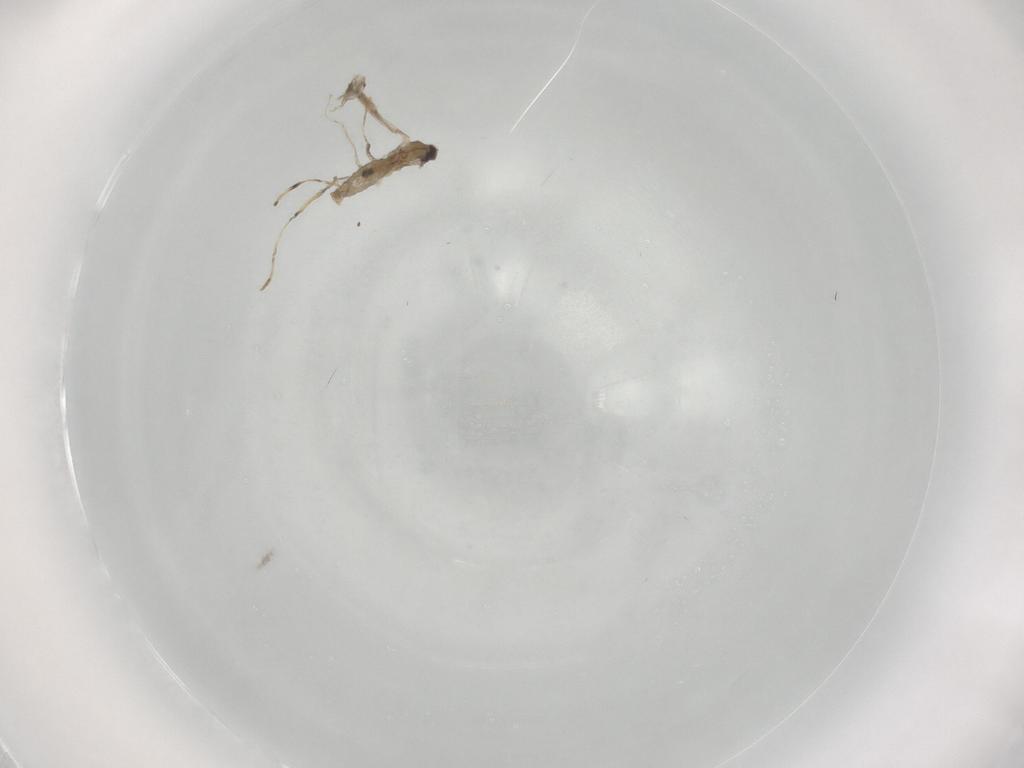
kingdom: Animalia
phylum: Arthropoda
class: Insecta
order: Diptera
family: Cecidomyiidae
